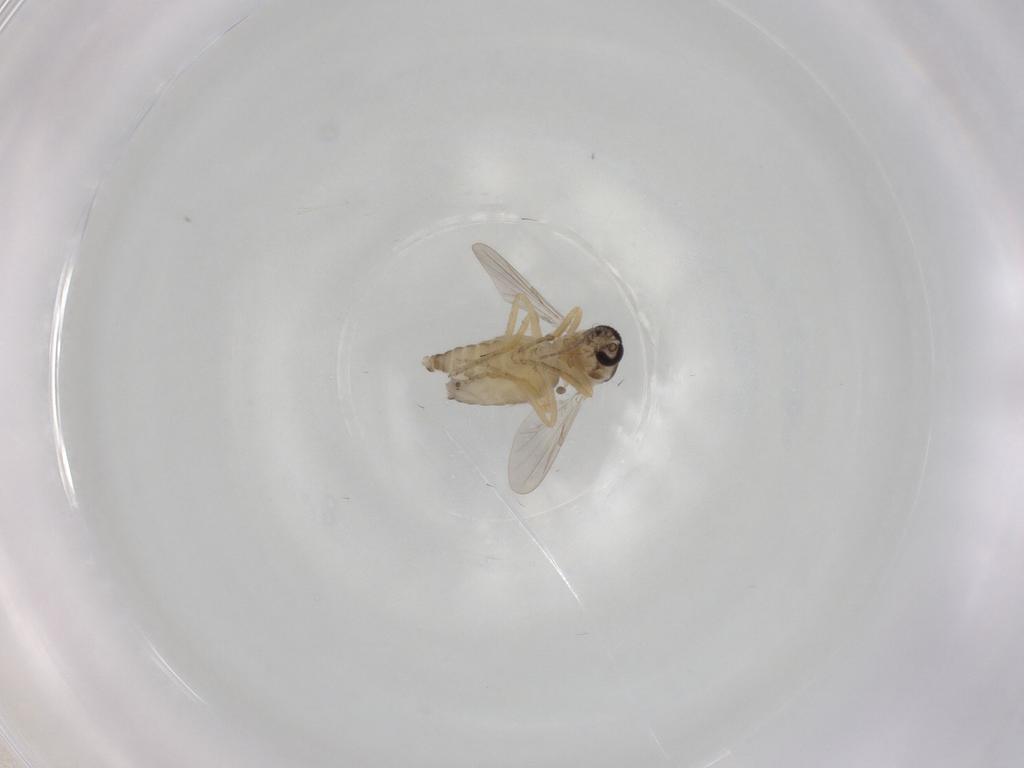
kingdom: Animalia
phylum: Arthropoda
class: Insecta
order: Diptera
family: Ceratopogonidae
